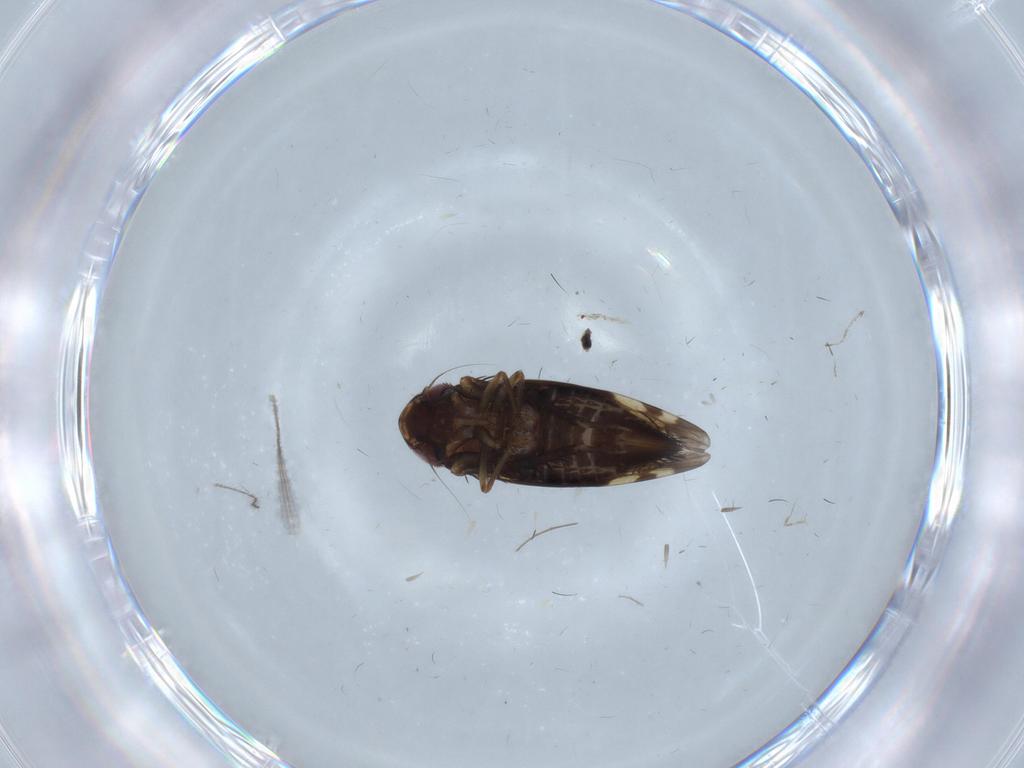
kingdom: Animalia
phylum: Arthropoda
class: Insecta
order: Hemiptera
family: Cicadellidae
